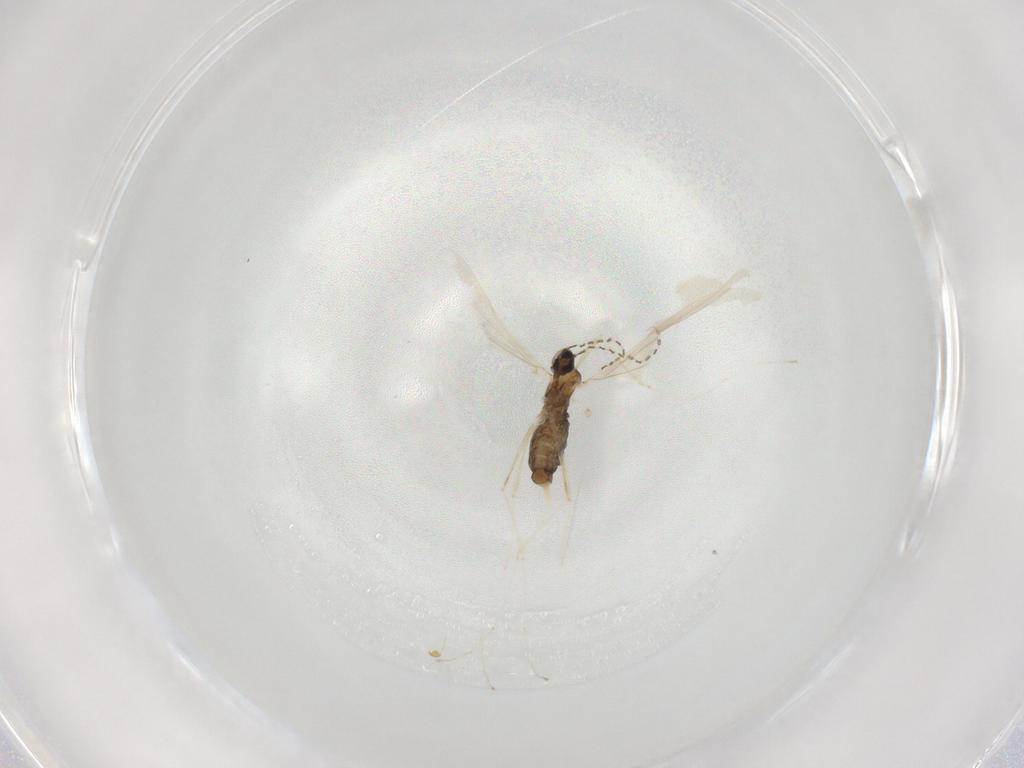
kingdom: Animalia
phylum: Arthropoda
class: Insecta
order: Diptera
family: Cecidomyiidae
